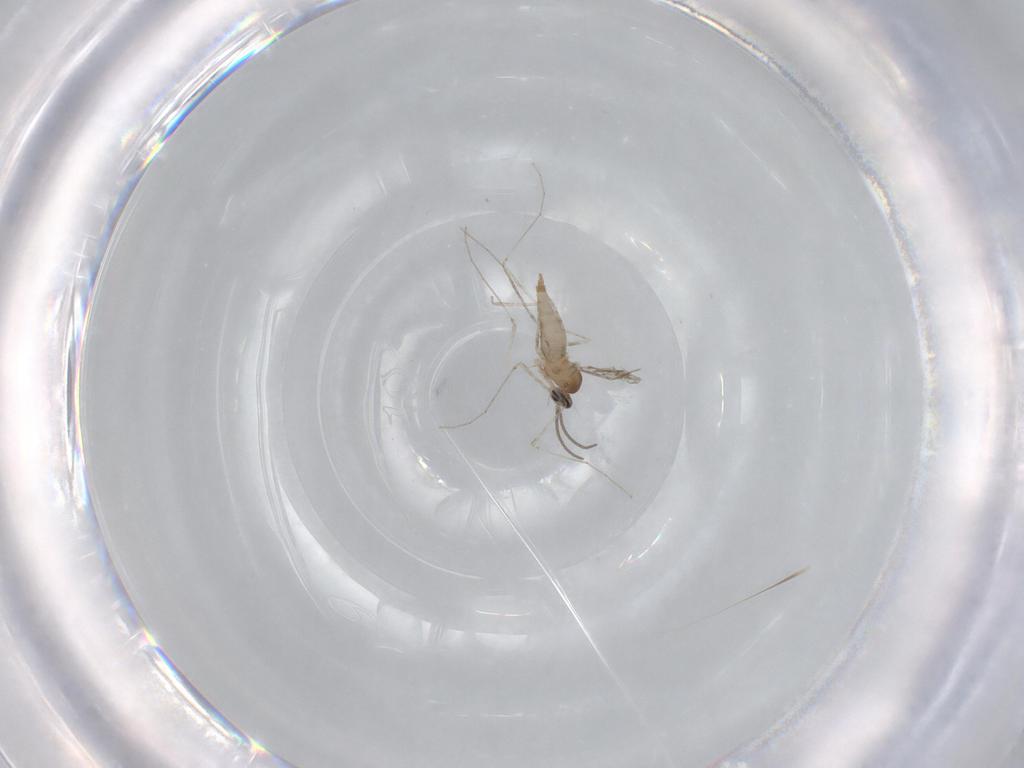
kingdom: Animalia
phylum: Arthropoda
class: Insecta
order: Diptera
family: Cecidomyiidae
